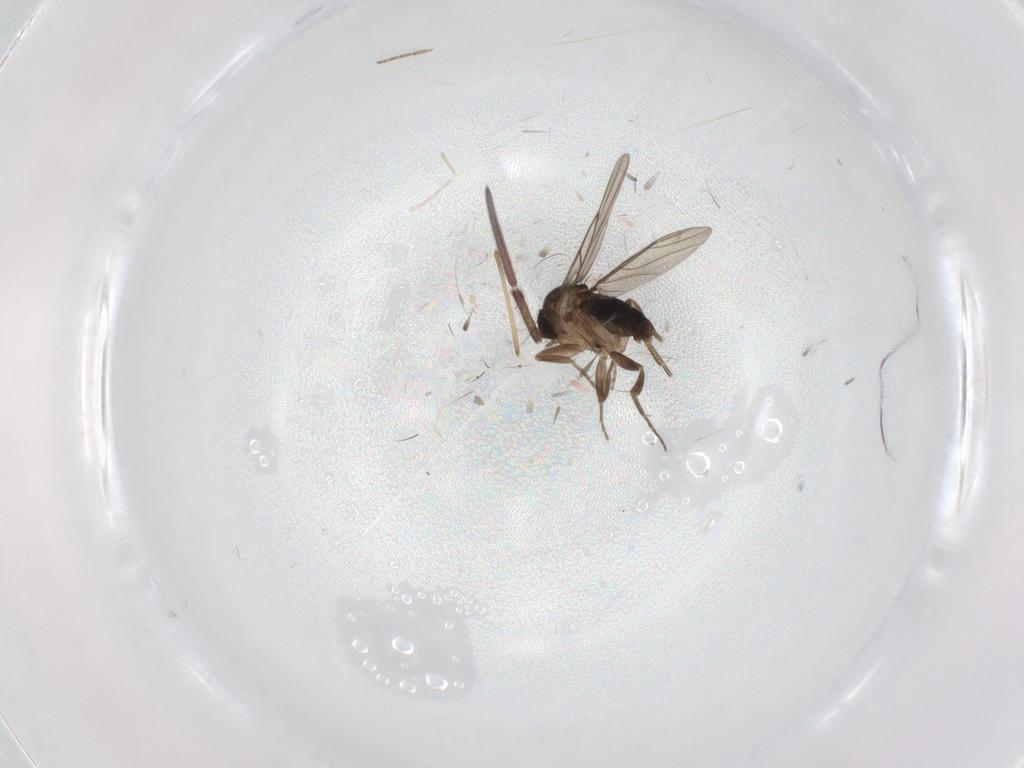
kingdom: Animalia
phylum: Arthropoda
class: Insecta
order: Diptera
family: Phoridae
